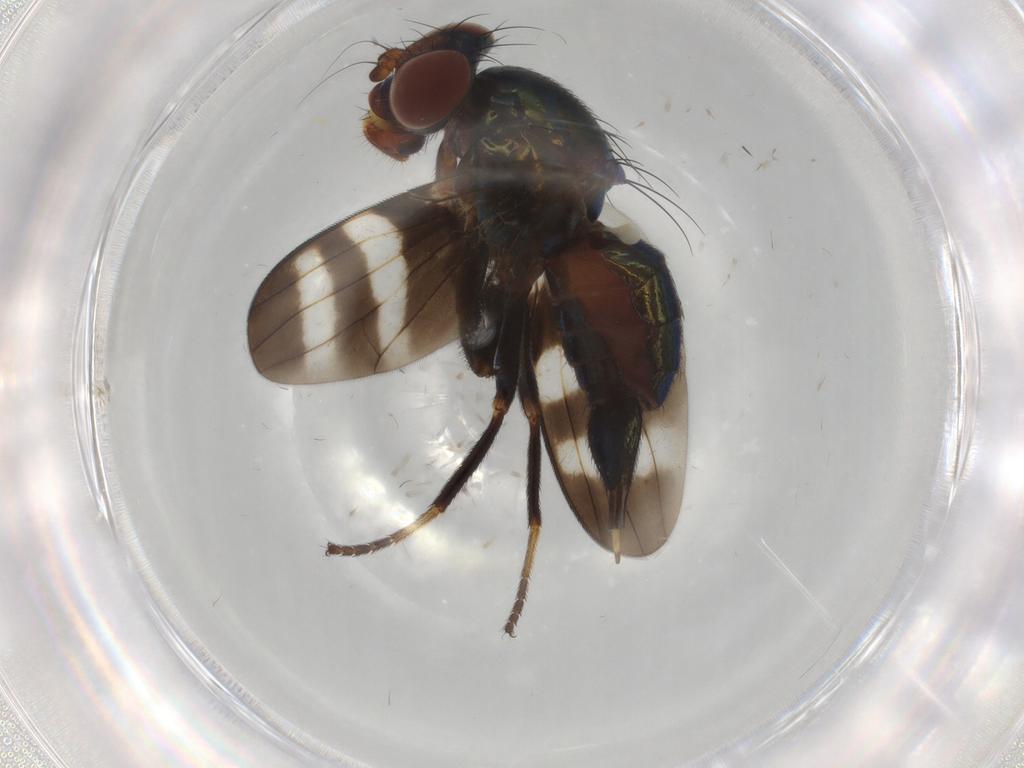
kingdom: Animalia
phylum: Arthropoda
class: Insecta
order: Diptera
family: Ulidiidae
